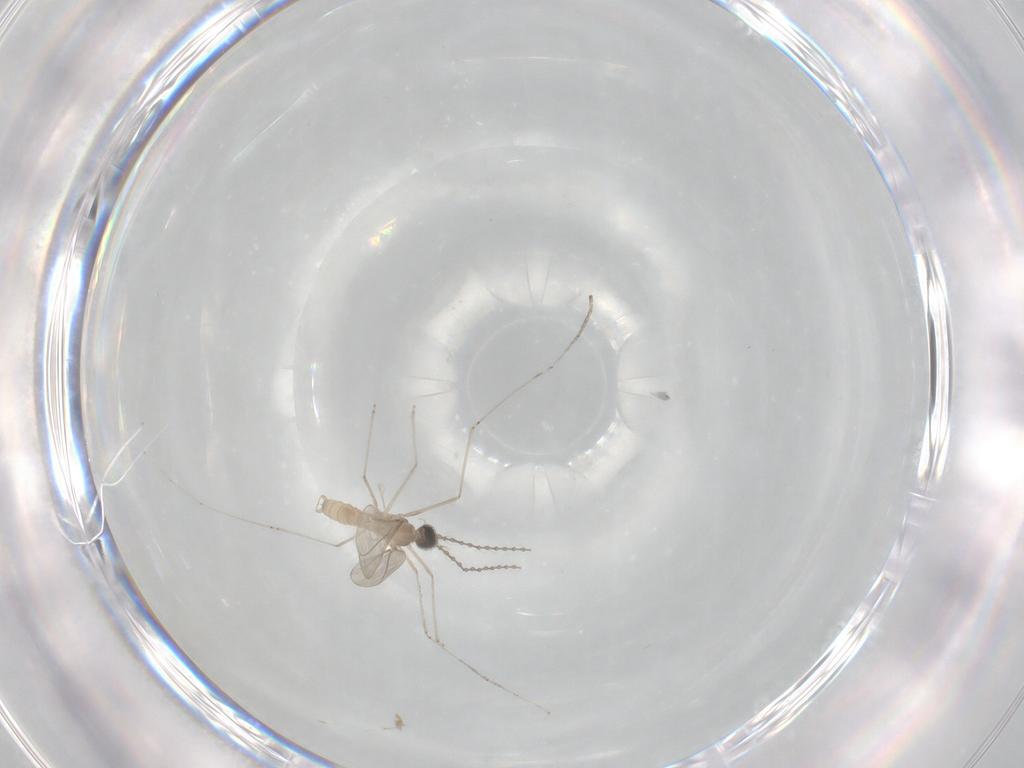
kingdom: Animalia
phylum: Arthropoda
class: Insecta
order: Diptera
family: Cecidomyiidae
